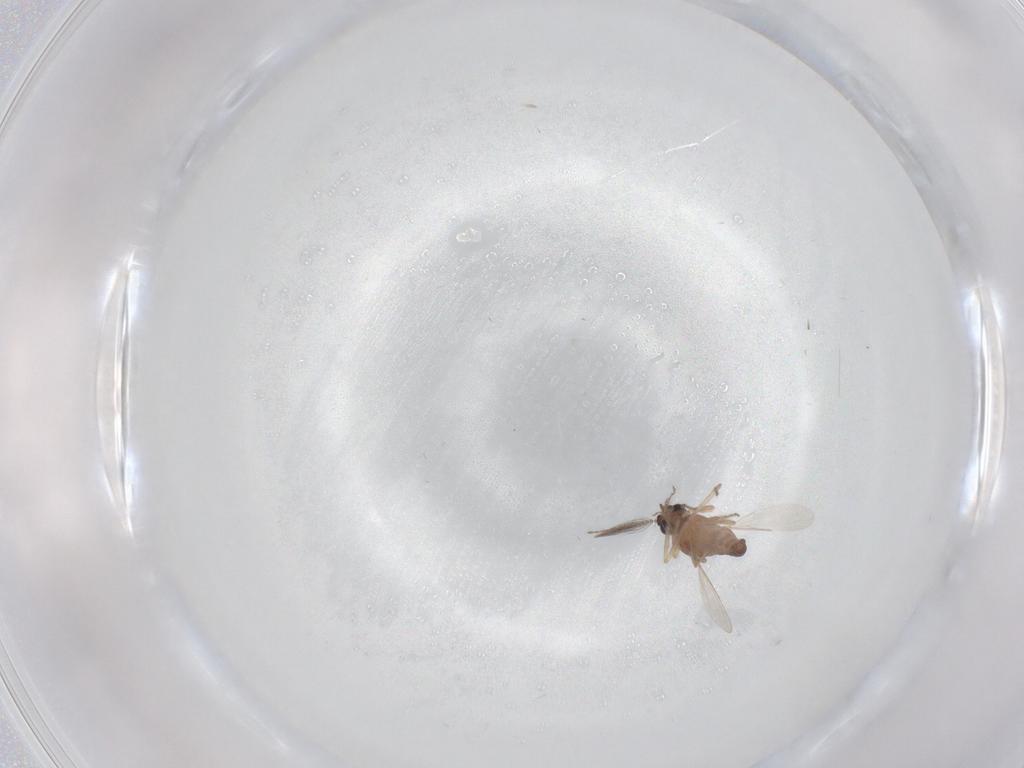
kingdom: Animalia
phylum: Arthropoda
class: Insecta
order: Diptera
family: Ceratopogonidae
